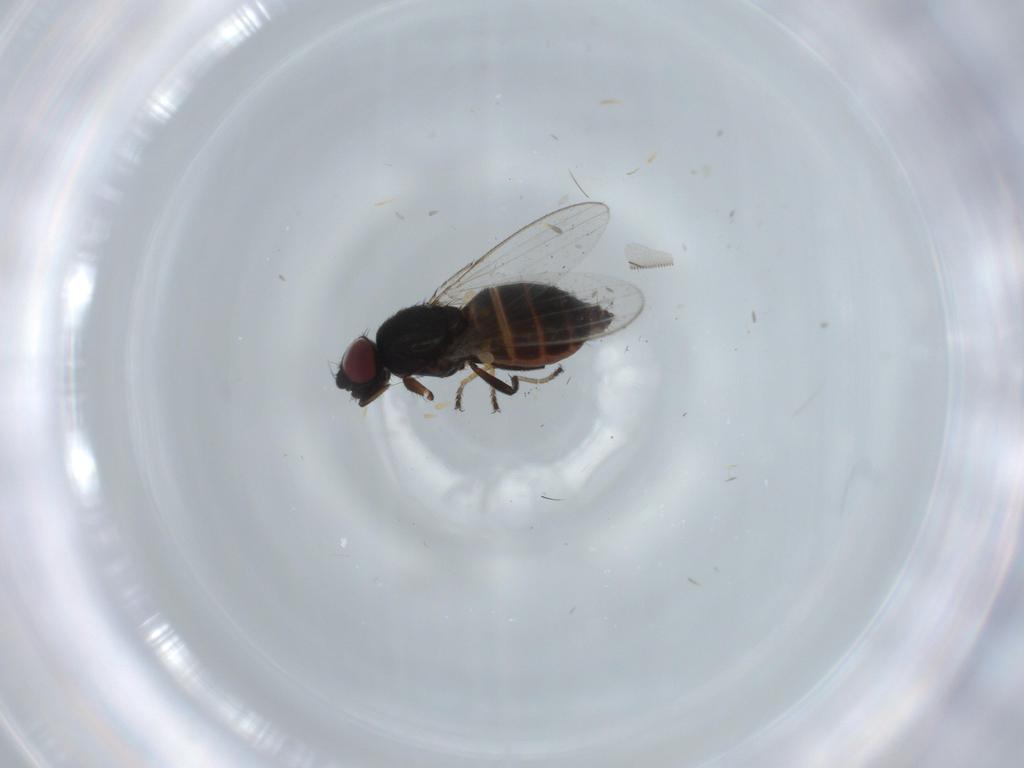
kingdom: Animalia
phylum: Arthropoda
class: Insecta
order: Diptera
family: Milichiidae
